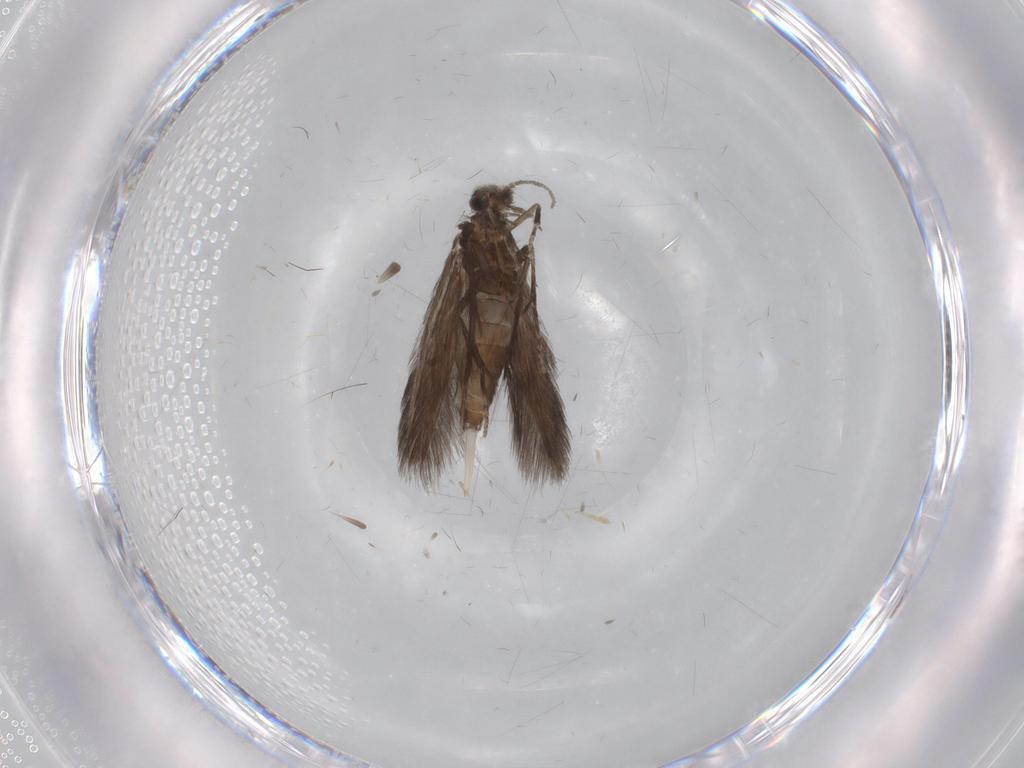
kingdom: Animalia
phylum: Arthropoda
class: Insecta
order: Trichoptera
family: Hydroptilidae
